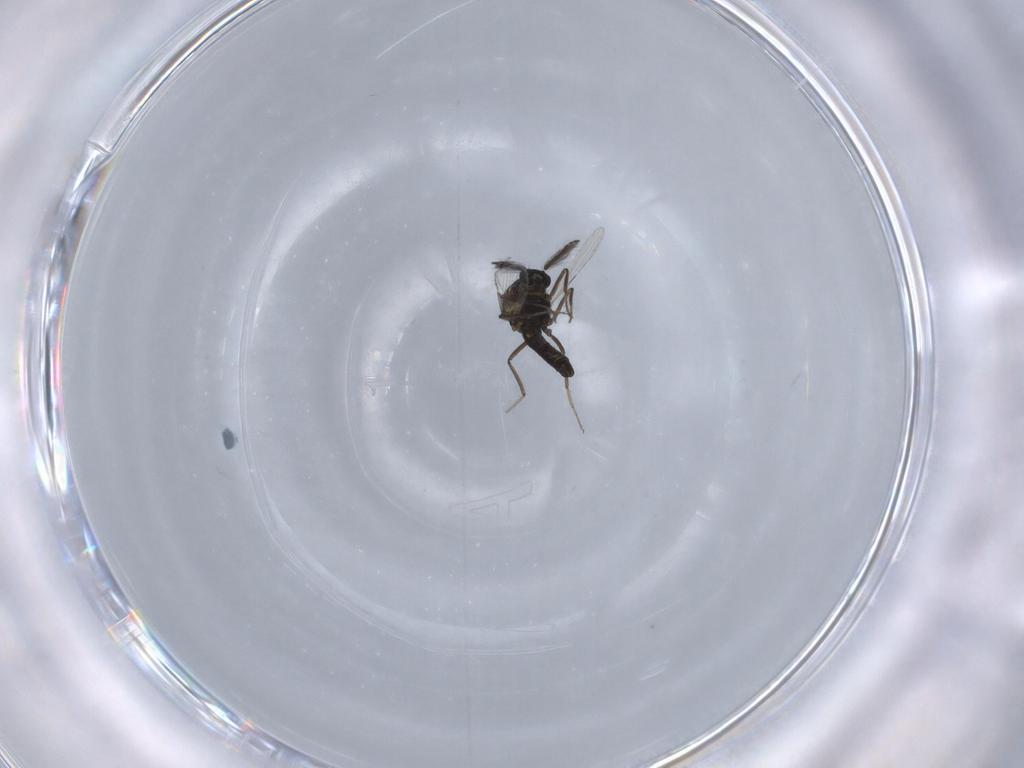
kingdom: Animalia
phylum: Arthropoda
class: Insecta
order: Diptera
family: Ceratopogonidae
